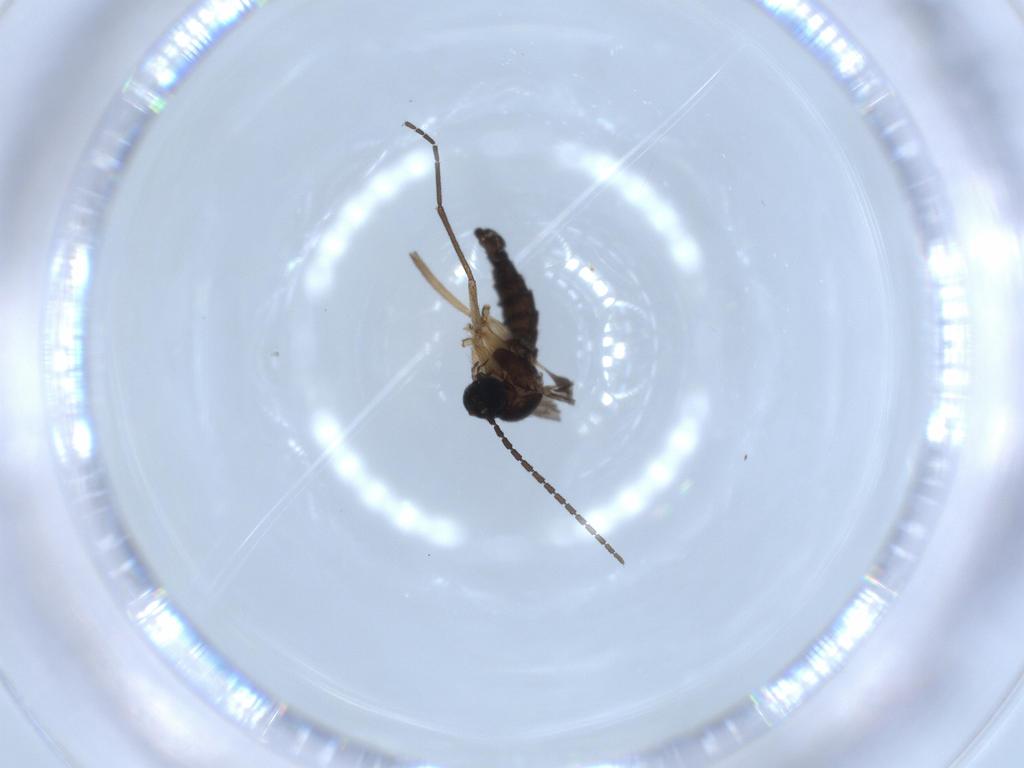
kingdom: Animalia
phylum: Arthropoda
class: Insecta
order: Diptera
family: Sciaridae
